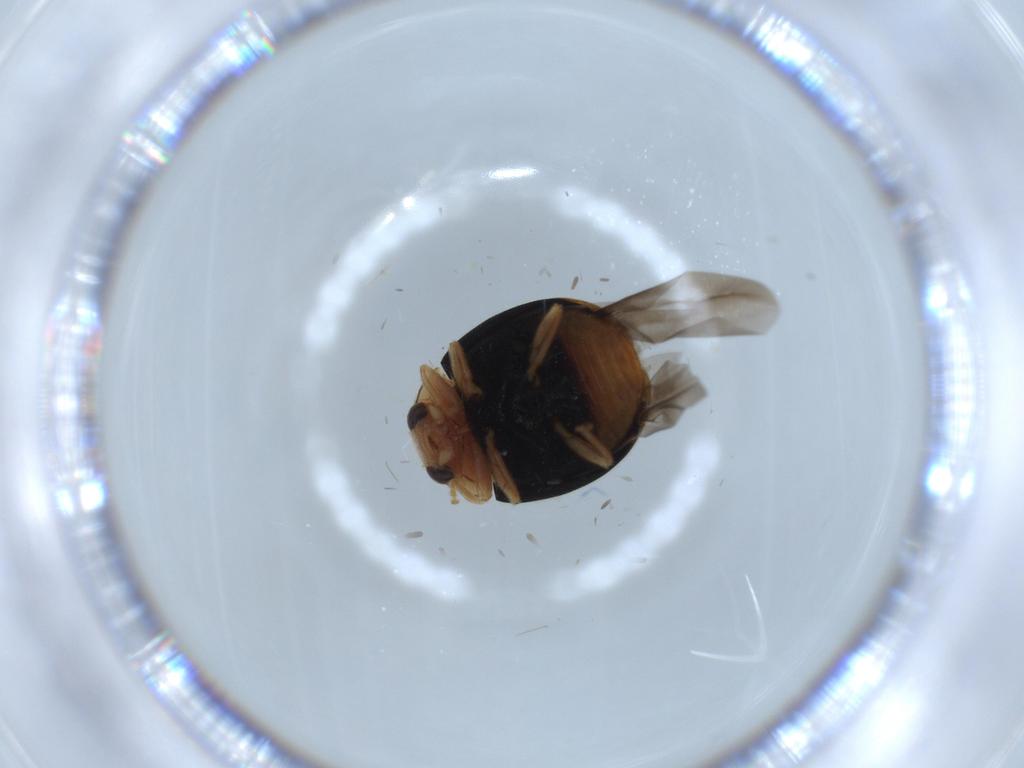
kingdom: Animalia
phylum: Arthropoda
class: Insecta
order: Coleoptera
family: Coccinellidae
